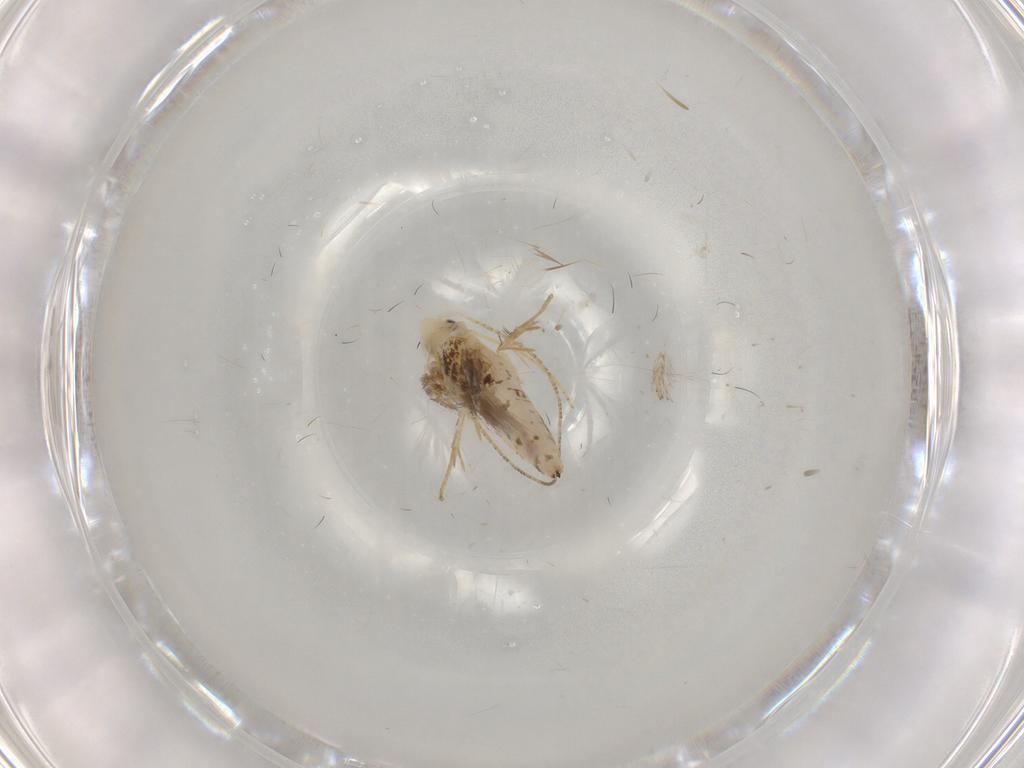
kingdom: Animalia
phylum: Arthropoda
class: Insecta
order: Lepidoptera
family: Bucculatricidae
